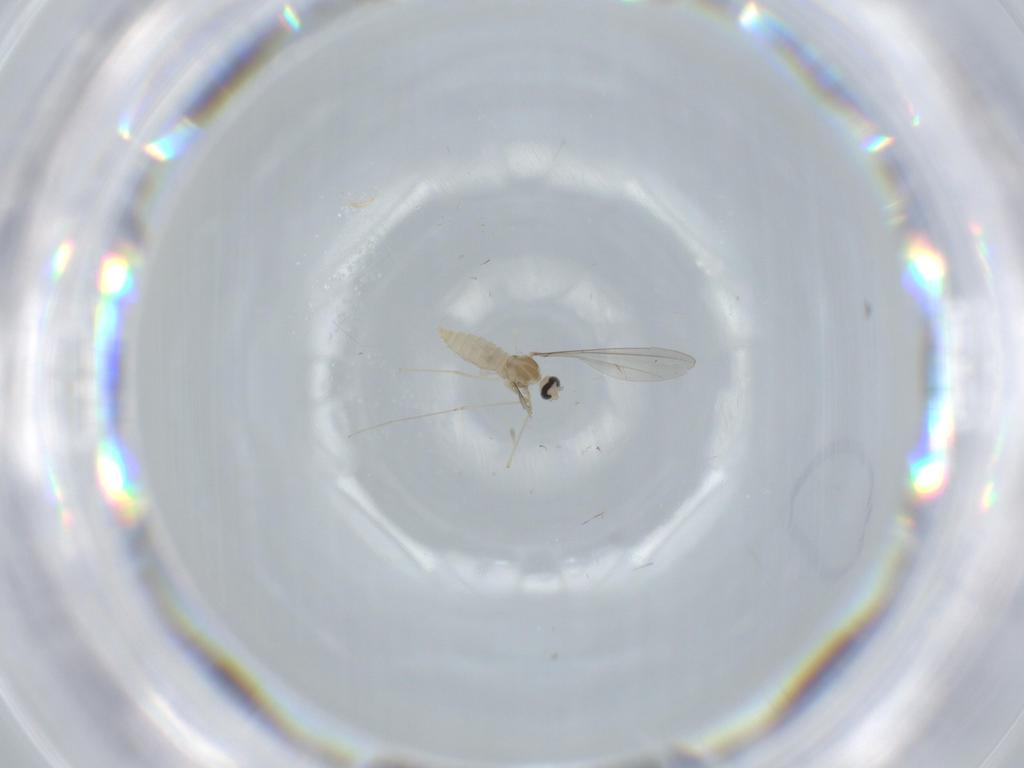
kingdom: Animalia
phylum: Arthropoda
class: Insecta
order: Diptera
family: Cecidomyiidae
